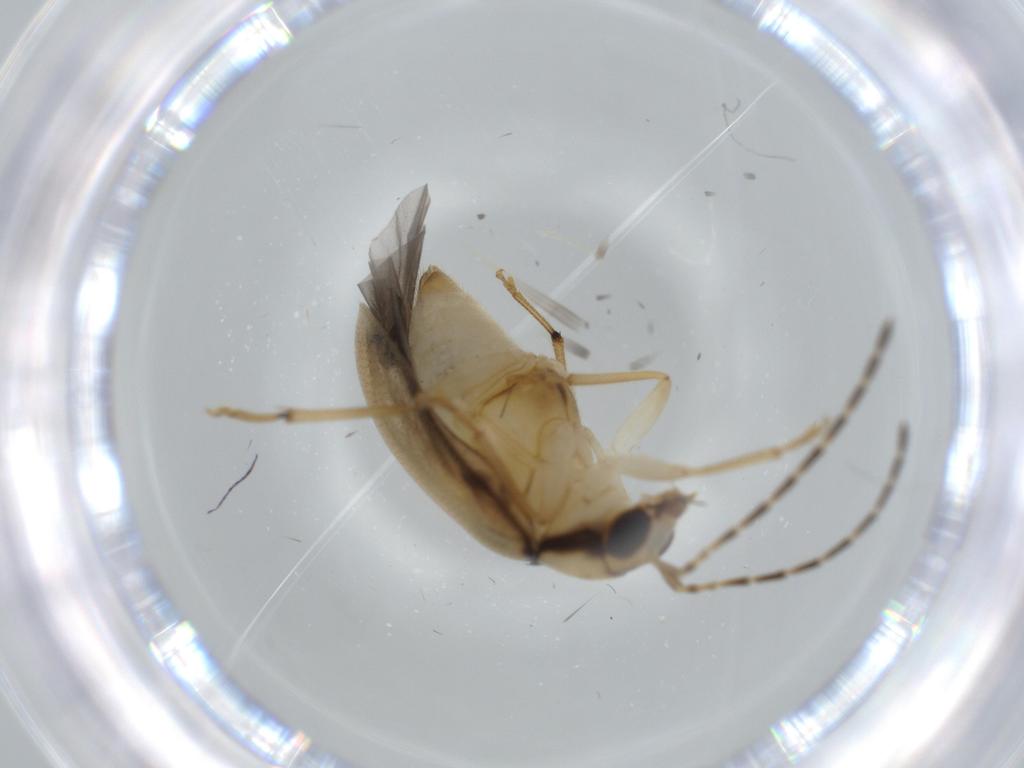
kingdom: Animalia
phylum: Arthropoda
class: Insecta
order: Coleoptera
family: Chrysomelidae
